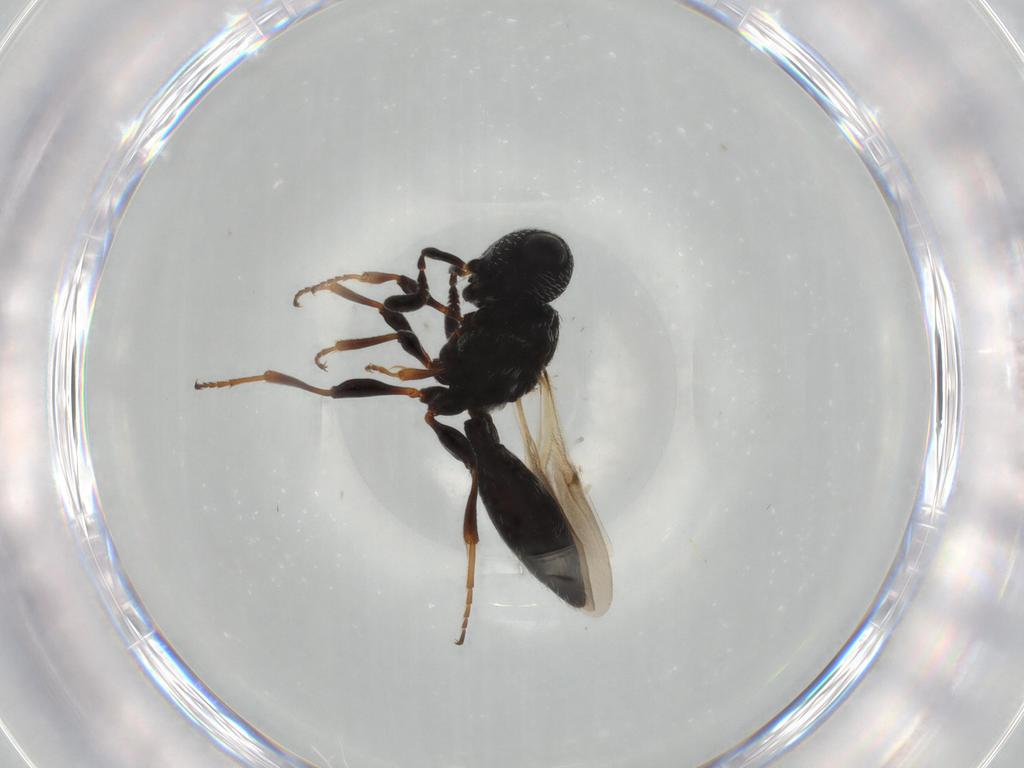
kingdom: Animalia
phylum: Arthropoda
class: Insecta
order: Hymenoptera
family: Aphelinidae
